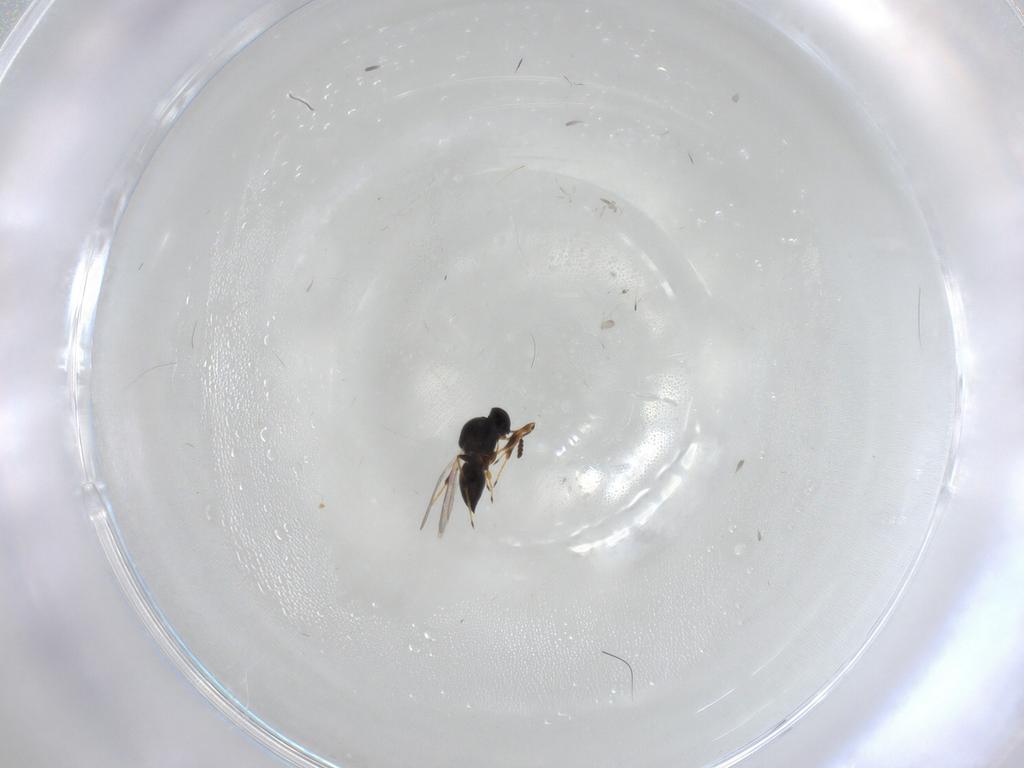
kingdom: Animalia
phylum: Arthropoda
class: Insecta
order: Hymenoptera
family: Platygastridae
